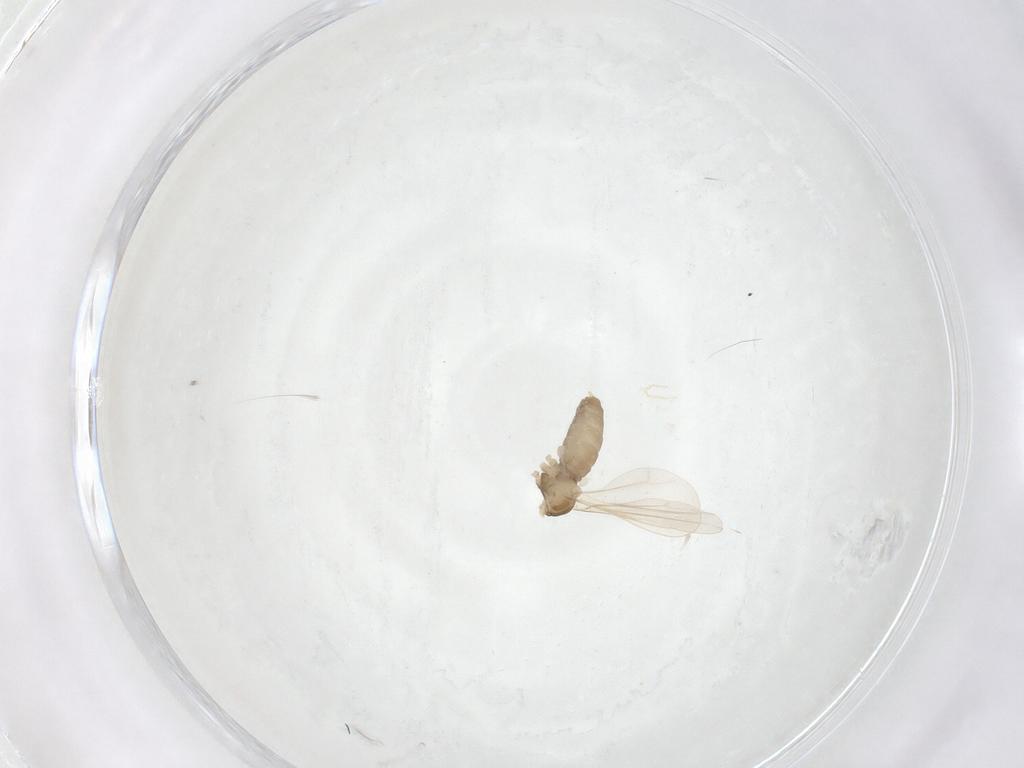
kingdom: Animalia
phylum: Arthropoda
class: Insecta
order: Diptera
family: Cecidomyiidae
